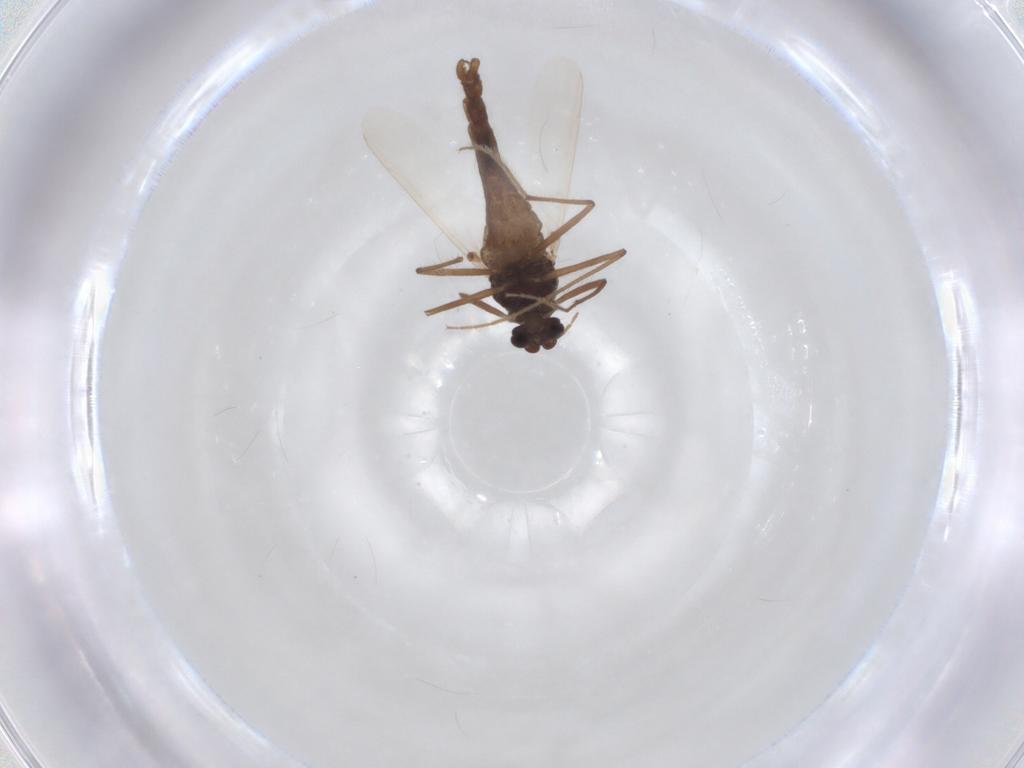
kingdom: Animalia
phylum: Arthropoda
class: Insecta
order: Diptera
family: Chironomidae
